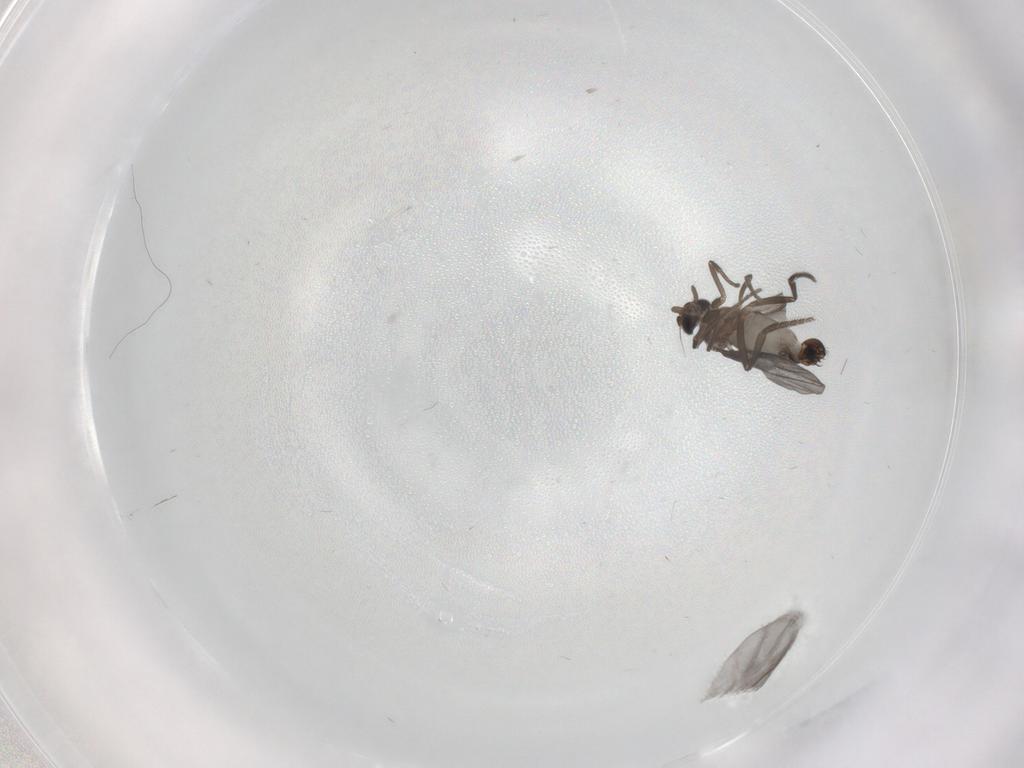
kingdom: Animalia
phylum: Arthropoda
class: Insecta
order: Diptera
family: Phoridae
